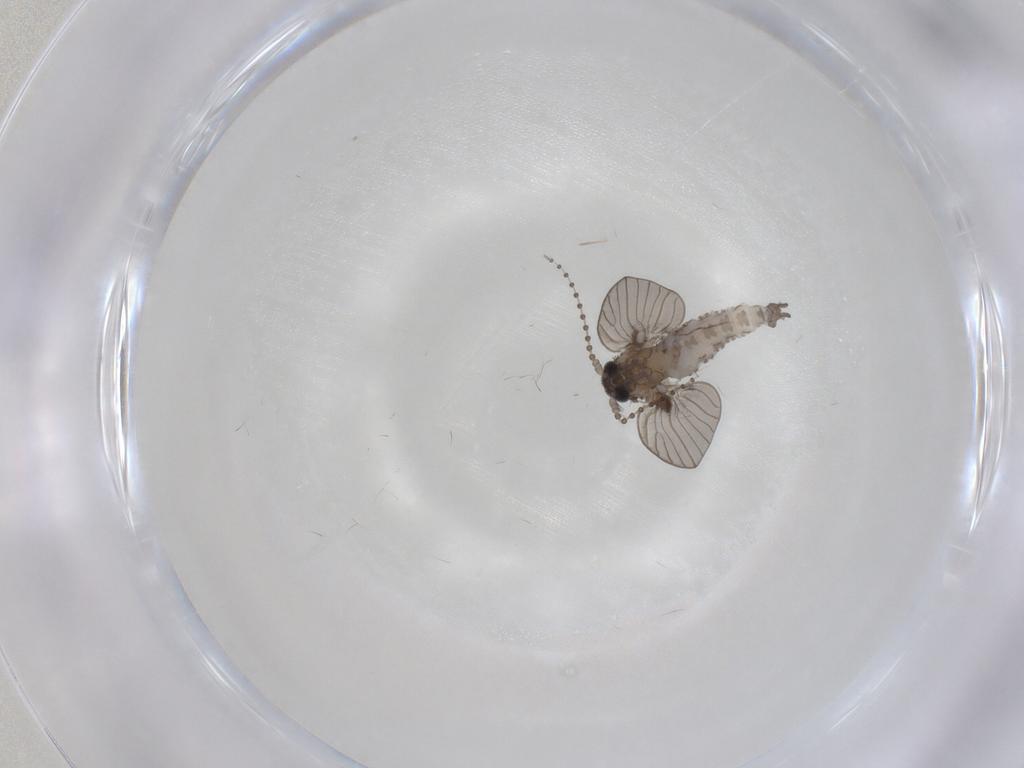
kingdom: Animalia
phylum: Arthropoda
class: Insecta
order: Diptera
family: Psychodidae
